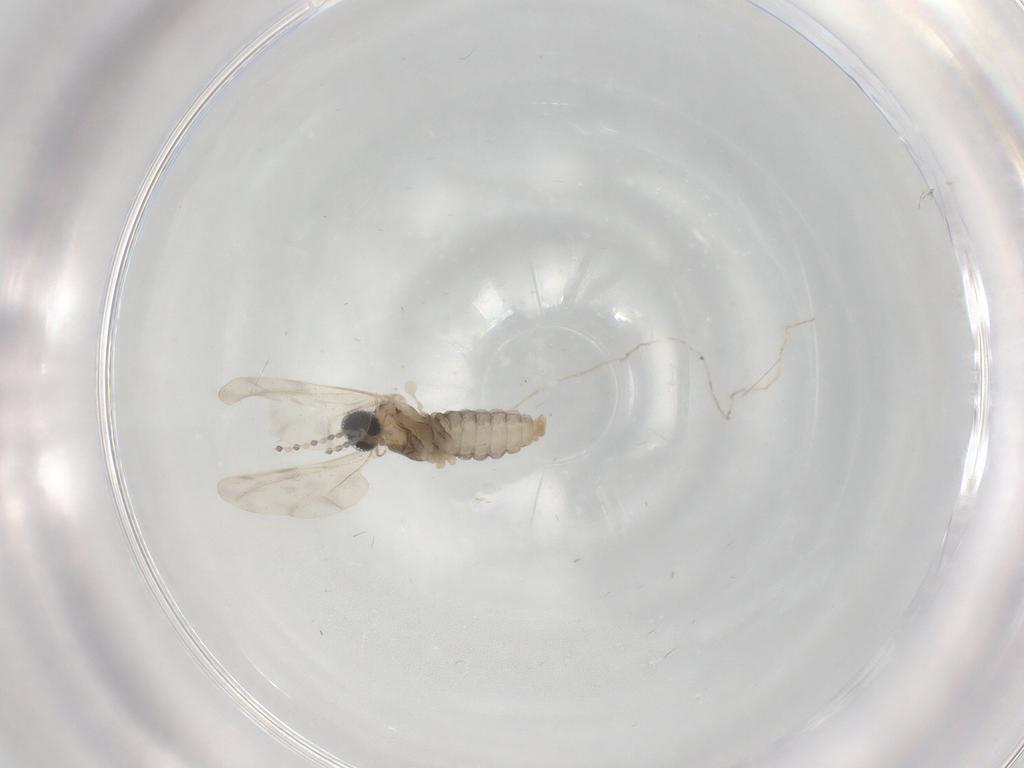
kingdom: Animalia
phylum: Arthropoda
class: Insecta
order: Diptera
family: Cecidomyiidae
